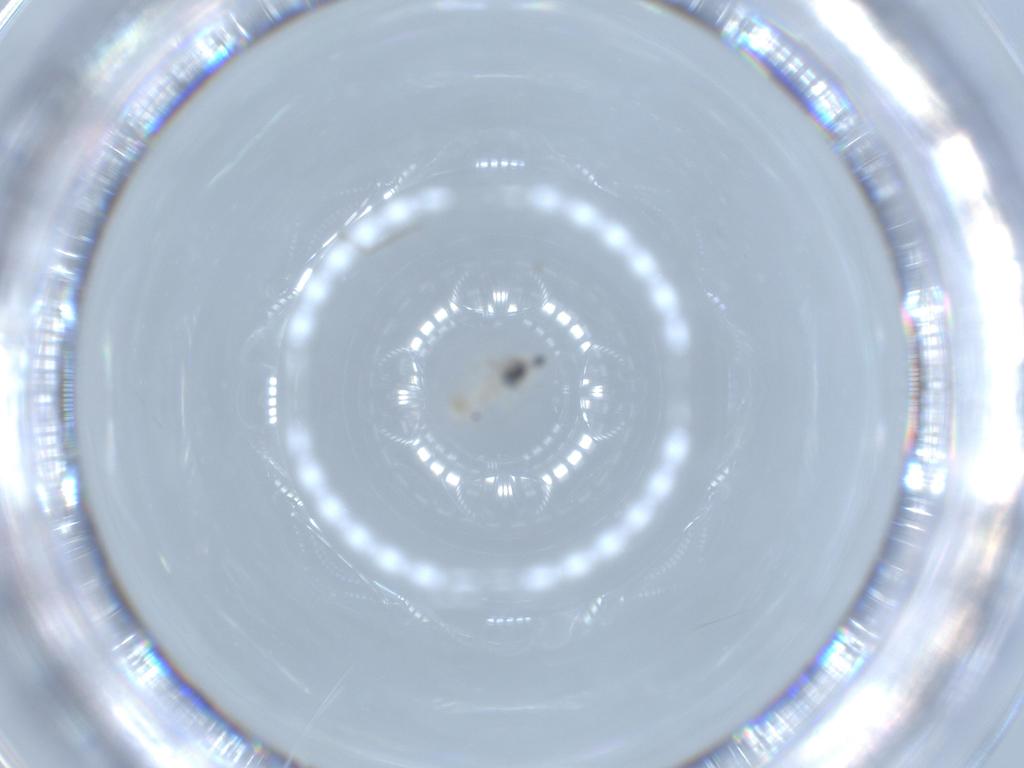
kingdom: Animalia
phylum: Arthropoda
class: Insecta
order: Psocodea
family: Caeciliusidae
